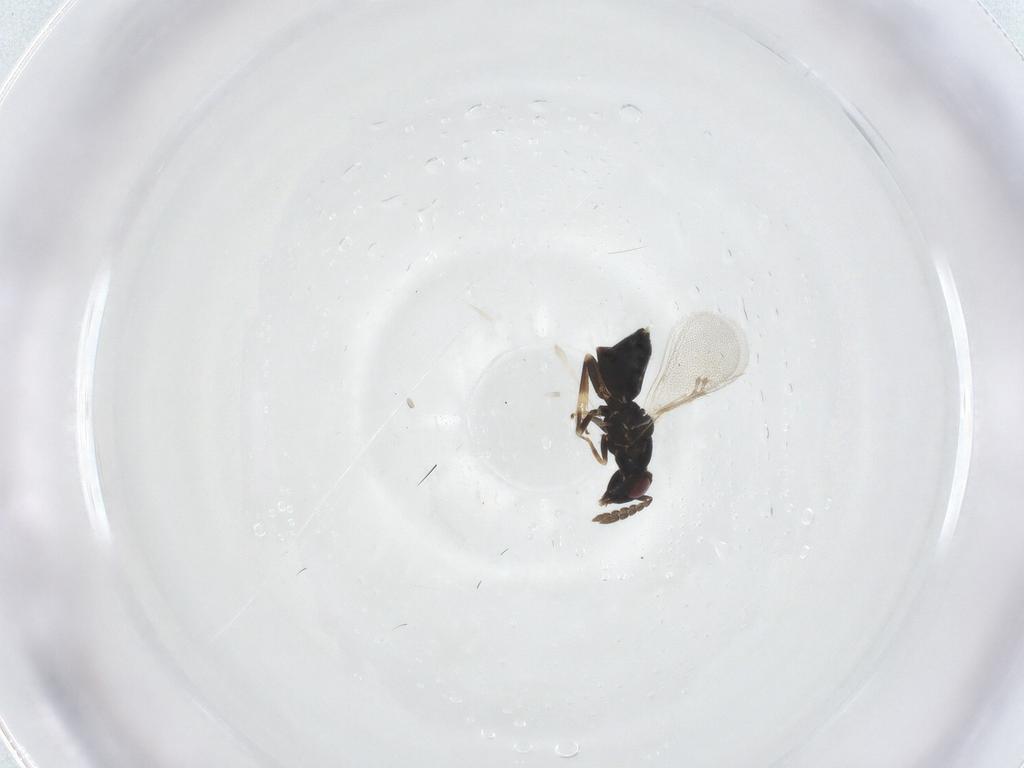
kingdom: Animalia
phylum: Arthropoda
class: Insecta
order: Hymenoptera
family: Eulophidae
